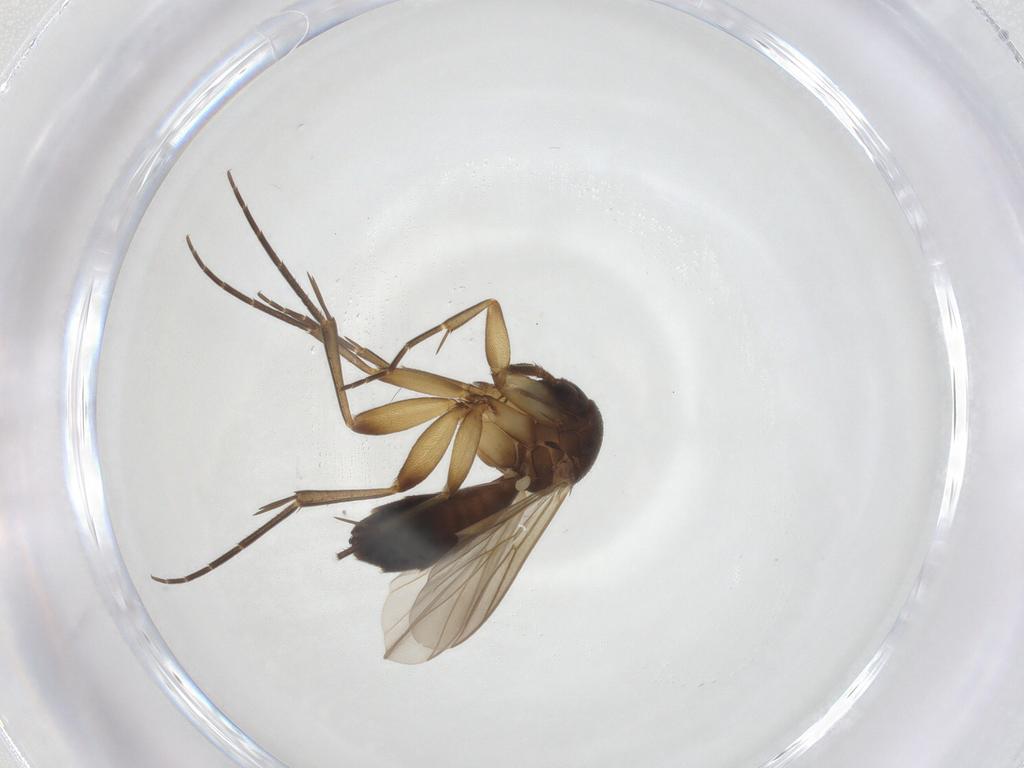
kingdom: Animalia
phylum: Arthropoda
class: Insecta
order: Diptera
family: Mycetophilidae
